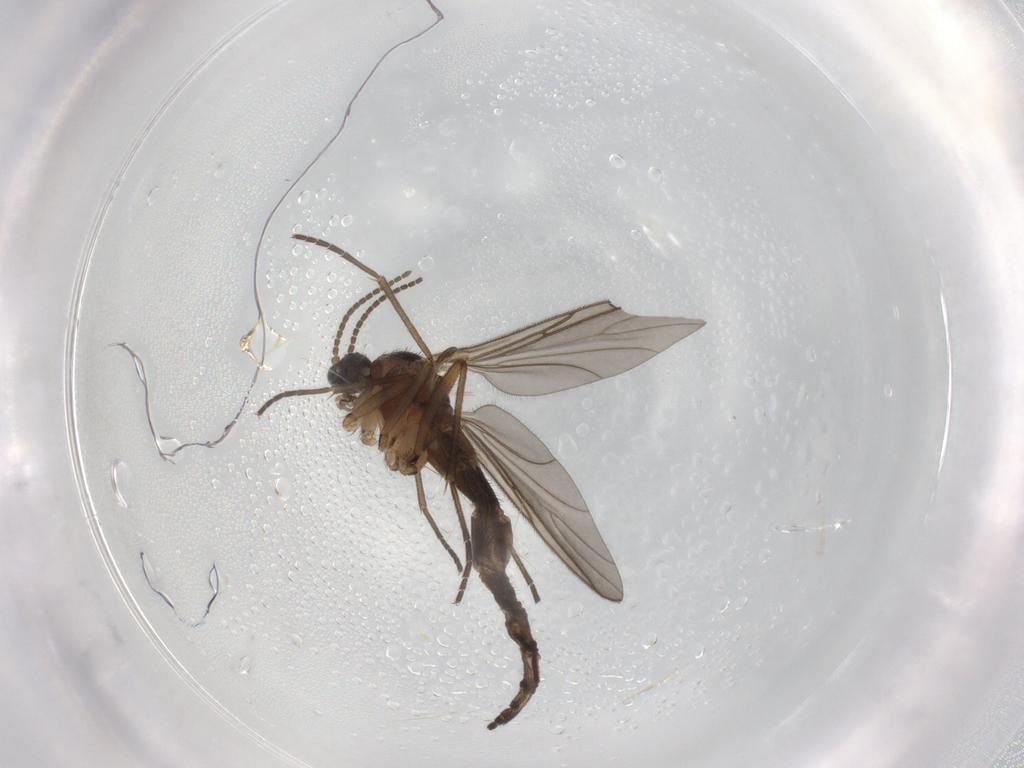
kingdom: Animalia
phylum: Arthropoda
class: Insecta
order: Diptera
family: Sciaridae
